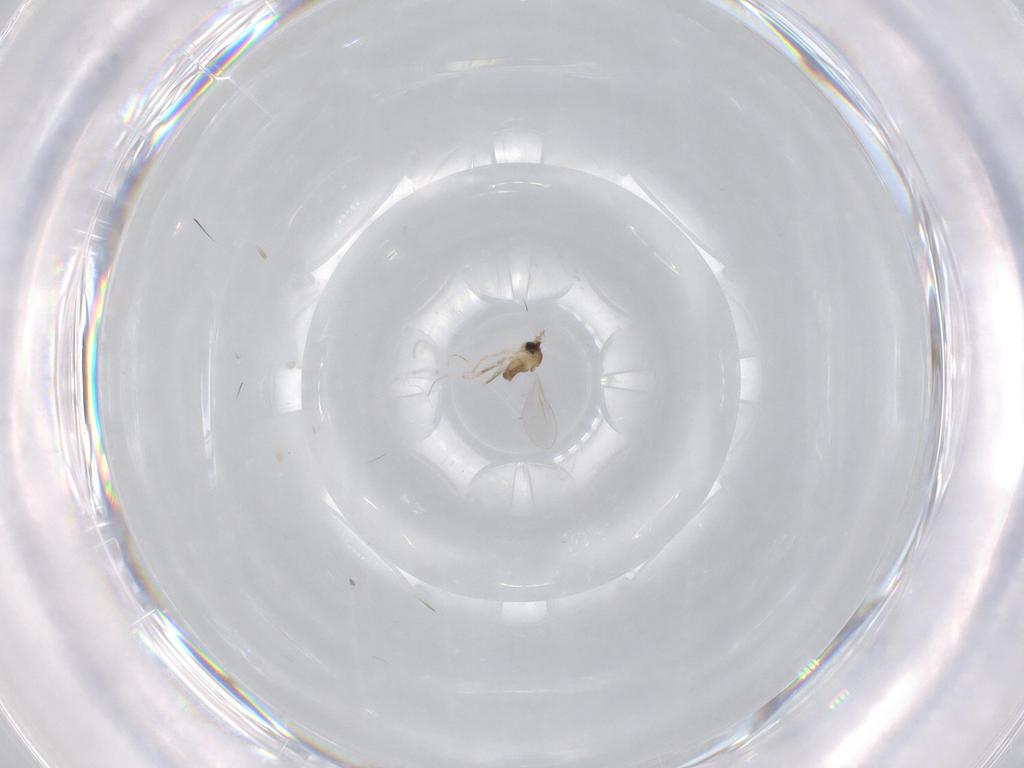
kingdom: Animalia
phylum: Arthropoda
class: Insecta
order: Diptera
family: Cecidomyiidae
